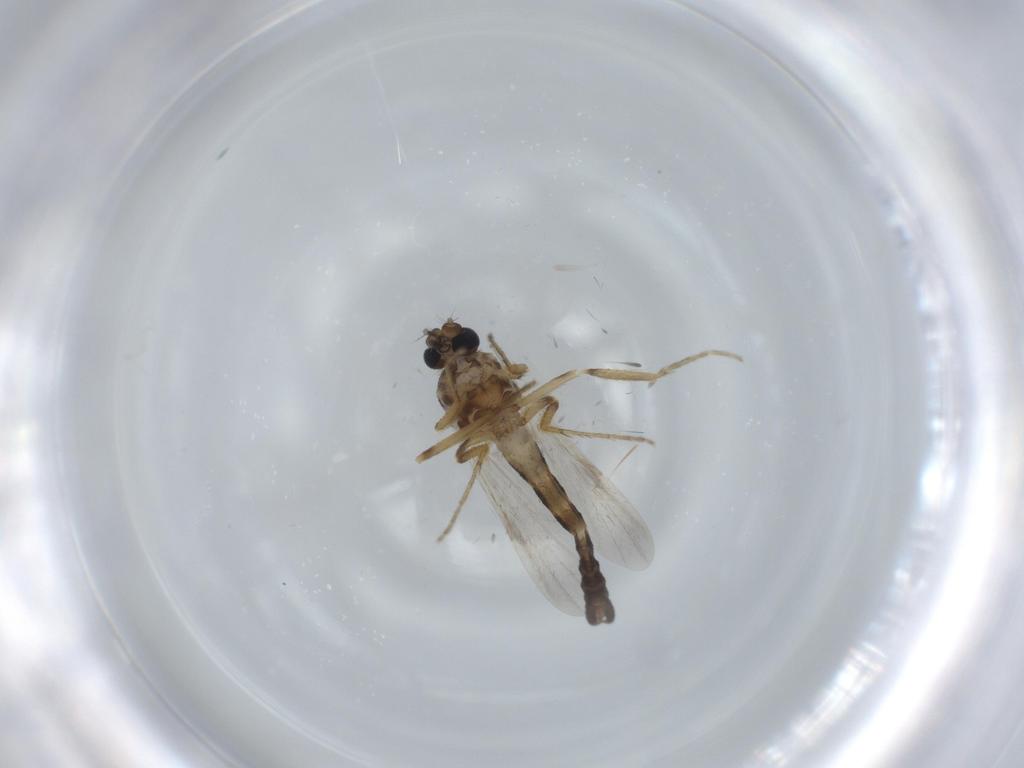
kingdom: Animalia
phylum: Arthropoda
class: Insecta
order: Diptera
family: Ceratopogonidae
